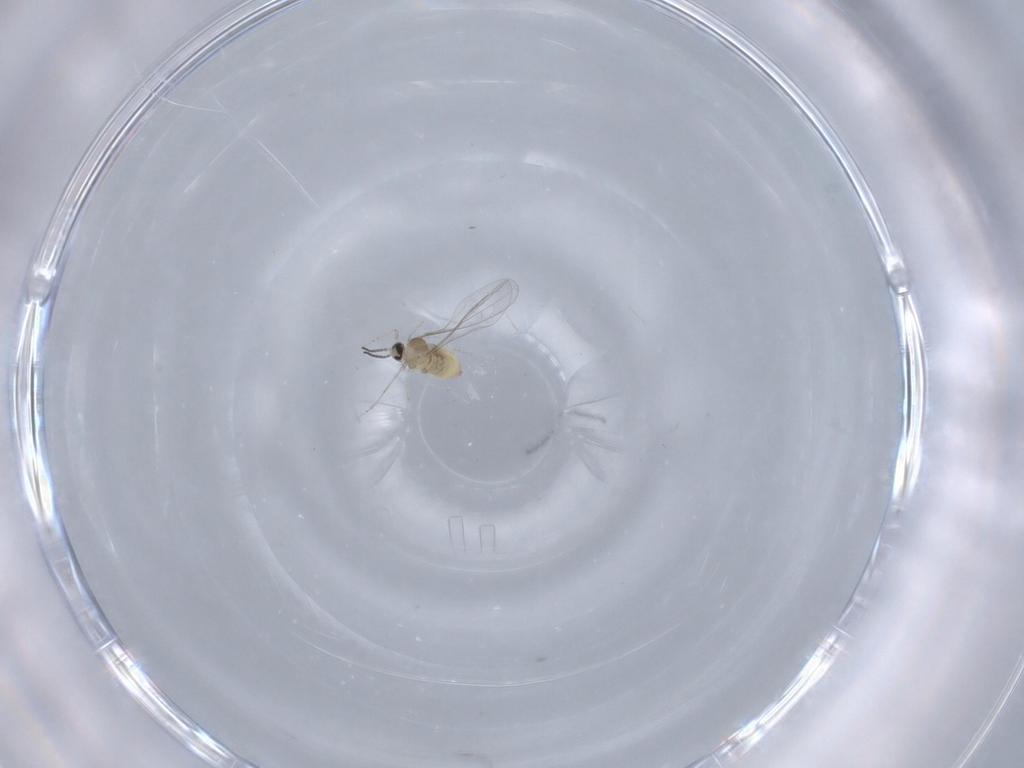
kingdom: Animalia
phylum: Arthropoda
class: Insecta
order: Diptera
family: Cecidomyiidae
